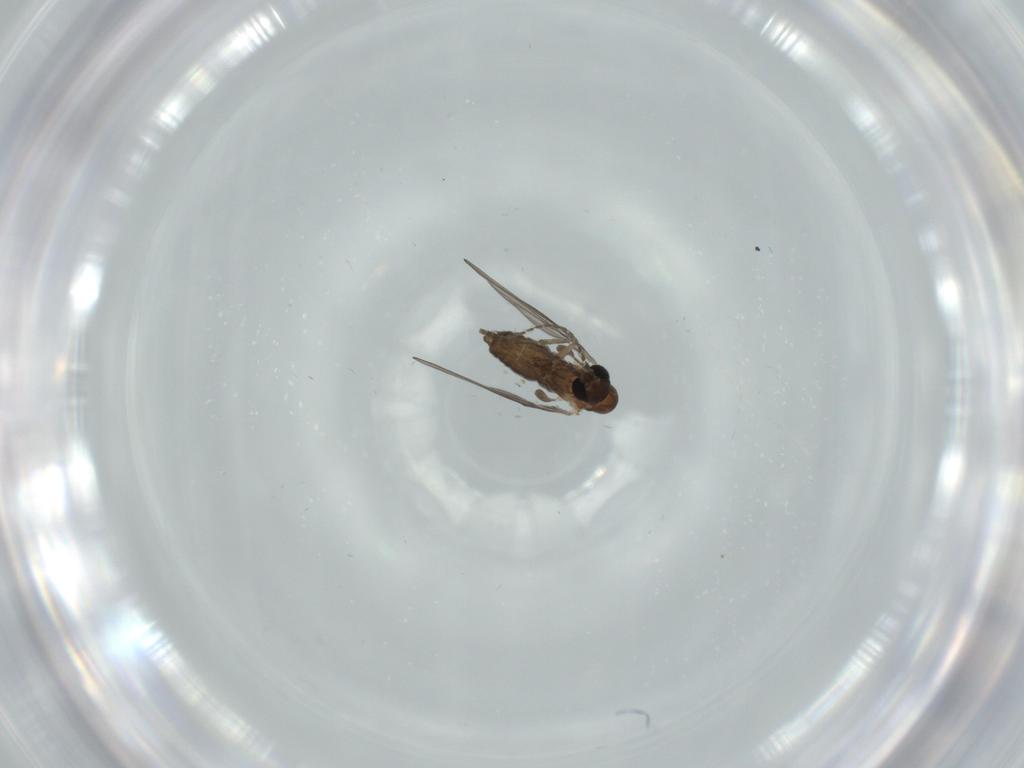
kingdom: Animalia
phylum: Arthropoda
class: Insecta
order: Diptera
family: Psychodidae
